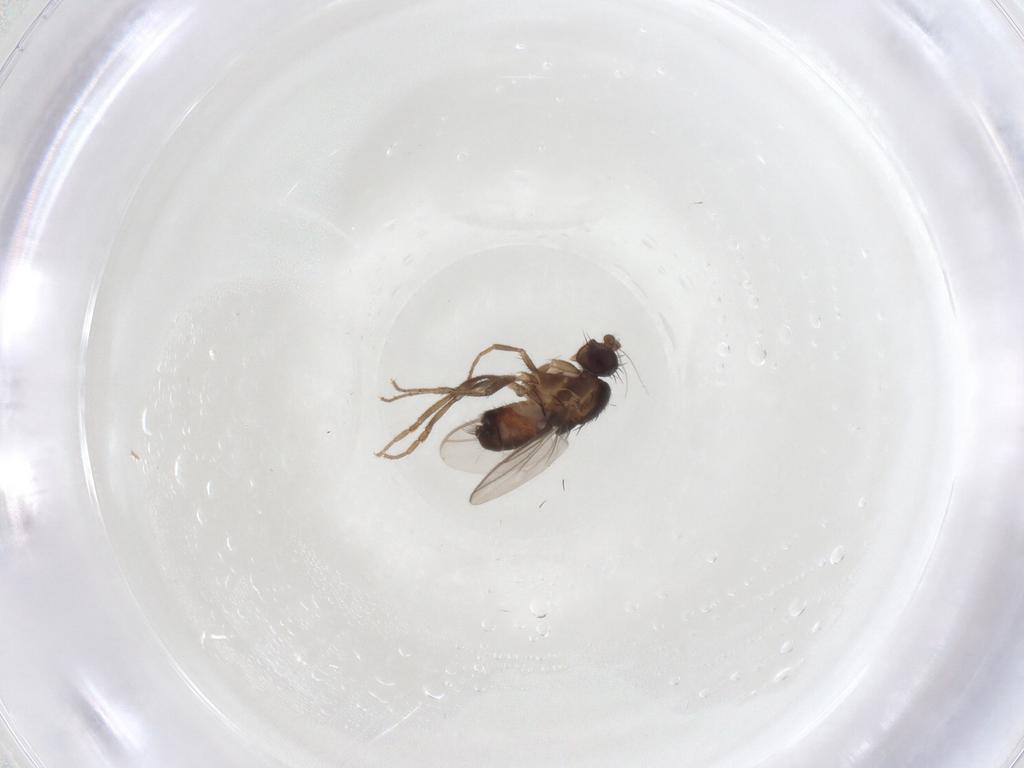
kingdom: Animalia
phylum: Arthropoda
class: Insecta
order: Diptera
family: Sphaeroceridae
